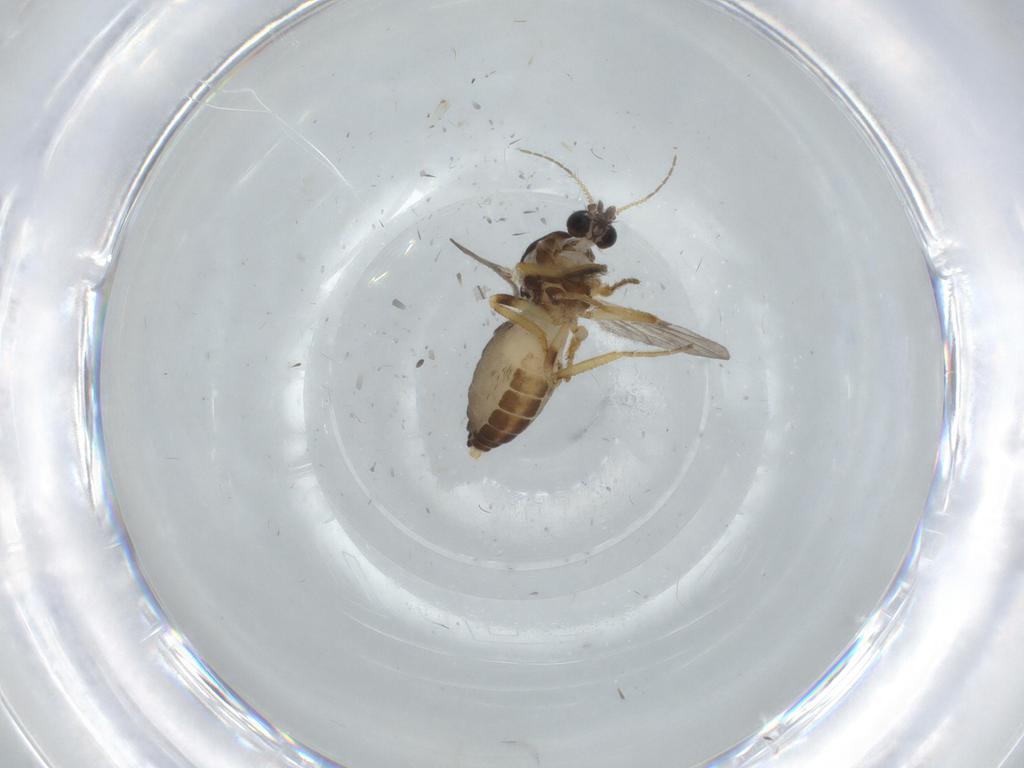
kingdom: Animalia
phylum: Arthropoda
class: Insecta
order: Diptera
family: Ceratopogonidae
